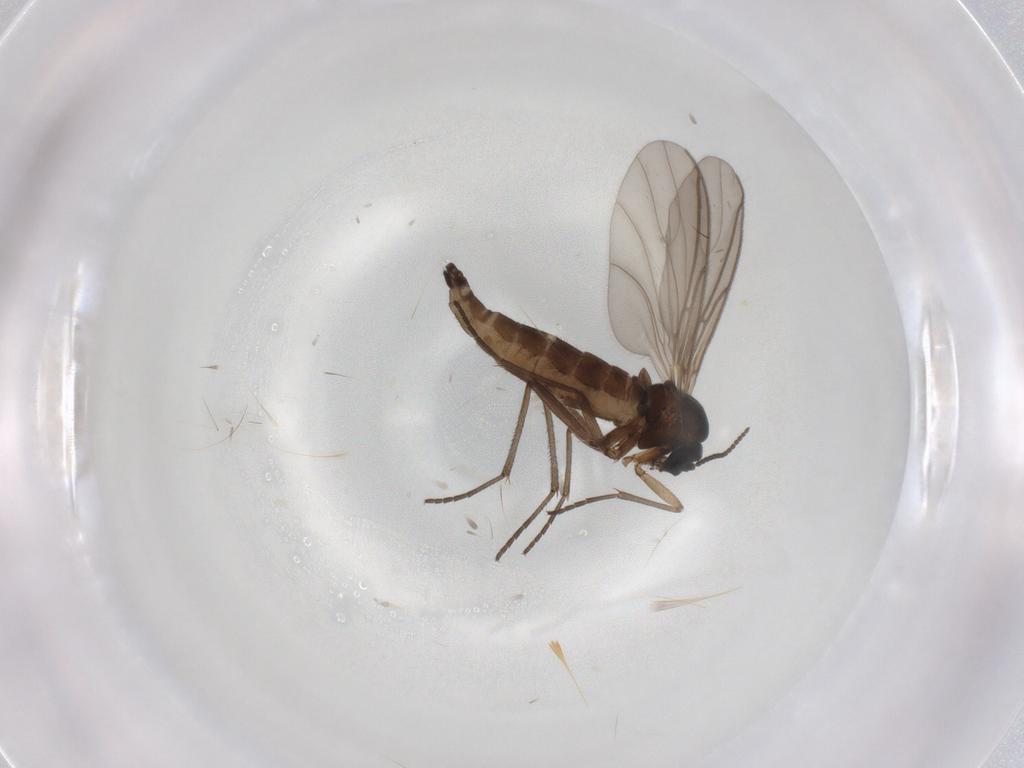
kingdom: Animalia
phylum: Arthropoda
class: Insecta
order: Diptera
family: Sciaridae
